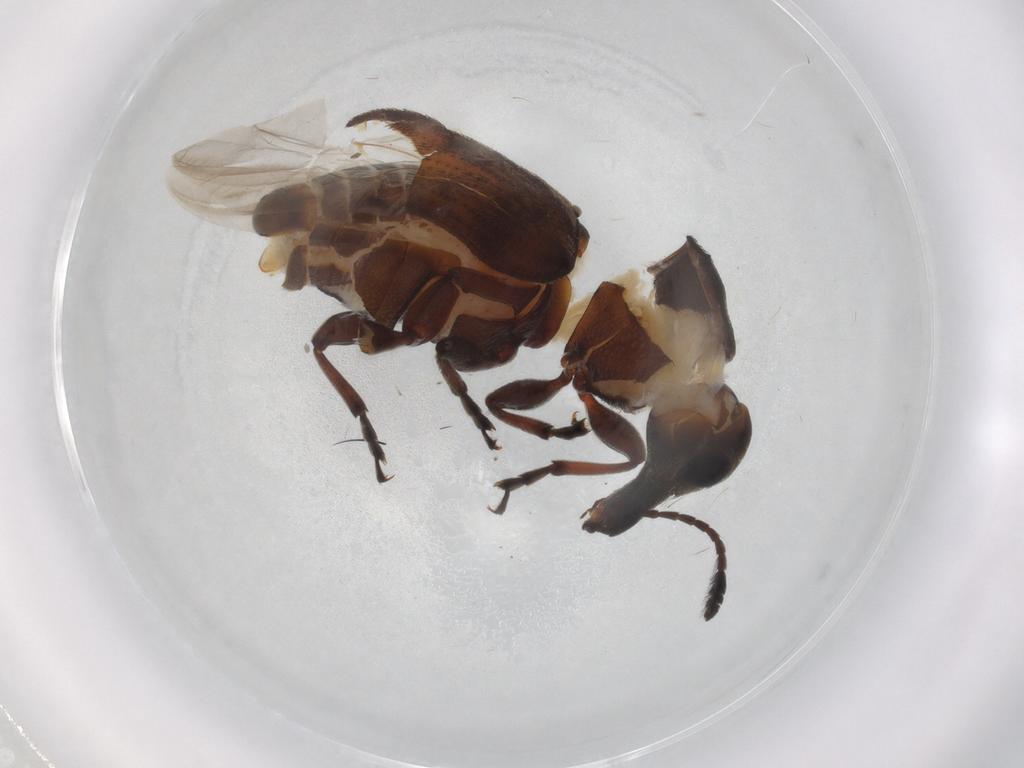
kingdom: Animalia
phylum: Arthropoda
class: Insecta
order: Coleoptera
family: Anthribidae
